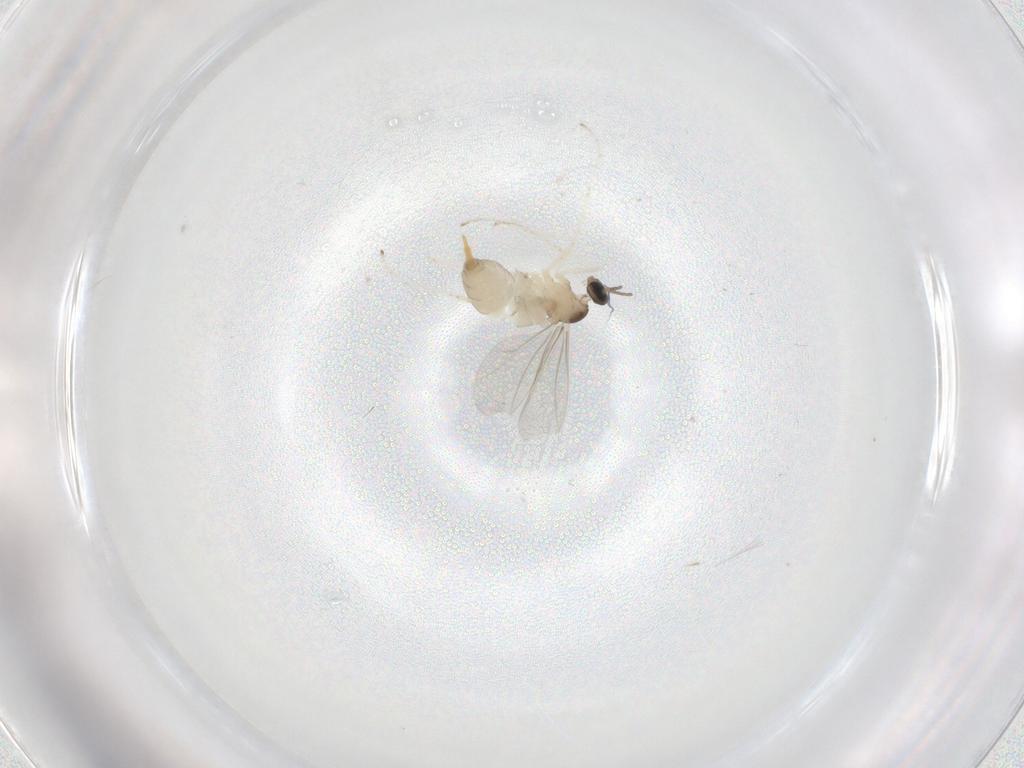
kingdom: Animalia
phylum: Arthropoda
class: Insecta
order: Diptera
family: Cecidomyiidae
